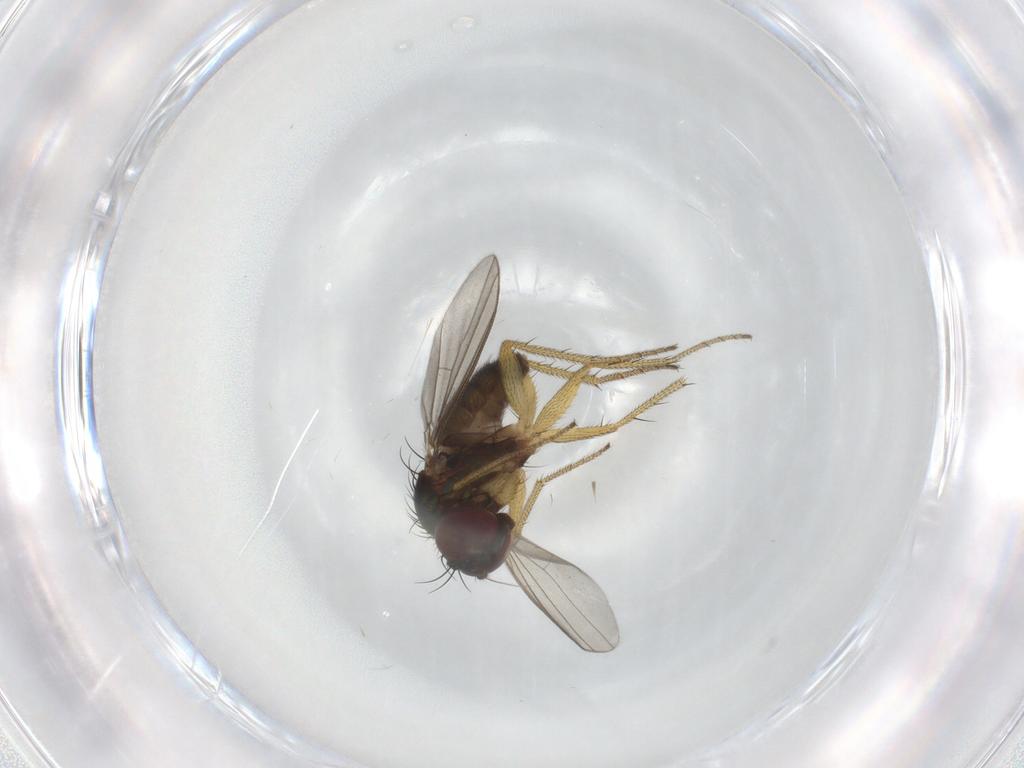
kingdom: Animalia
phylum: Arthropoda
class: Insecta
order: Diptera
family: Dolichopodidae
